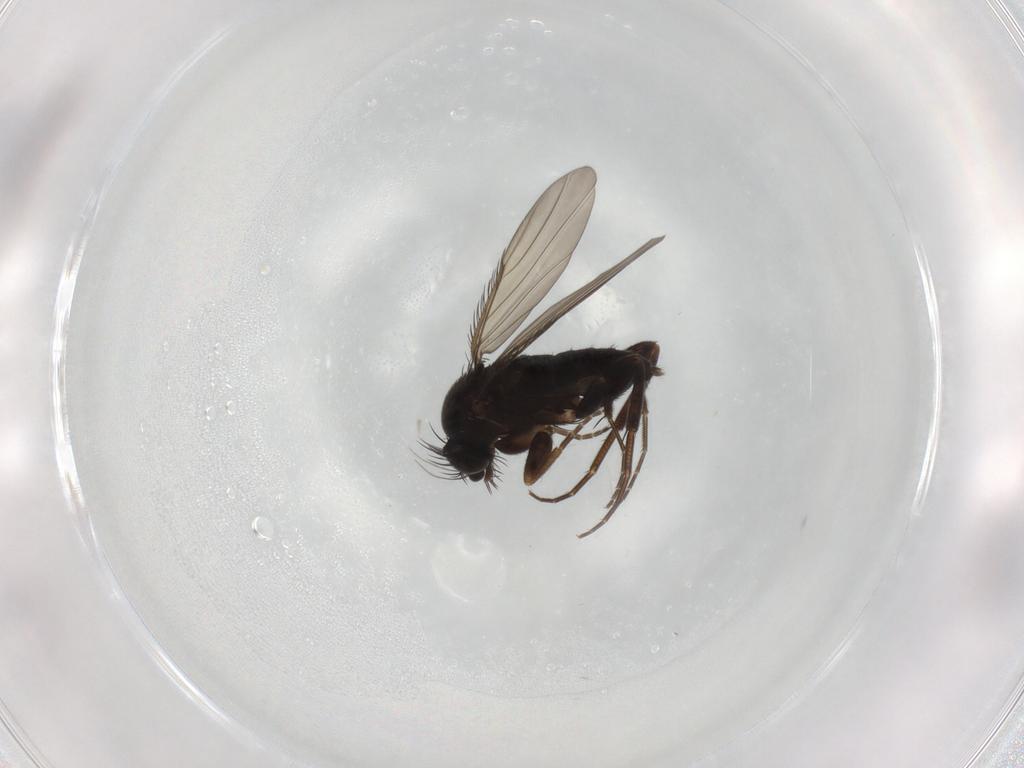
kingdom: Animalia
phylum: Arthropoda
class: Insecta
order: Diptera
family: Phoridae
